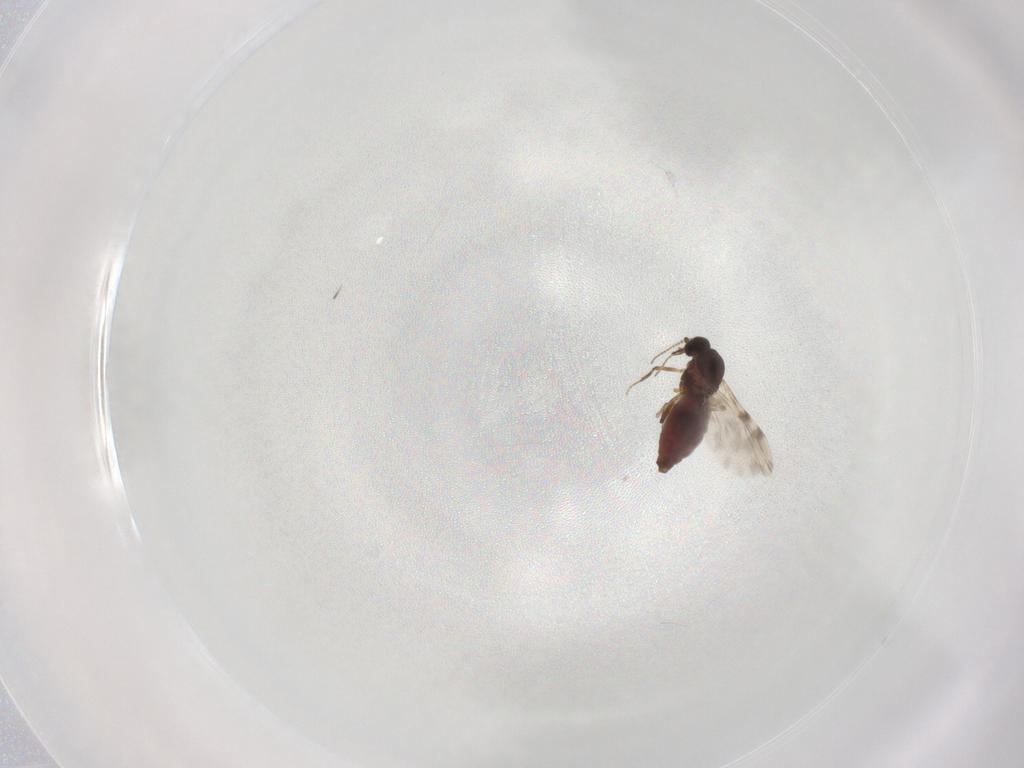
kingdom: Animalia
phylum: Arthropoda
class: Insecta
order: Diptera
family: Ceratopogonidae
